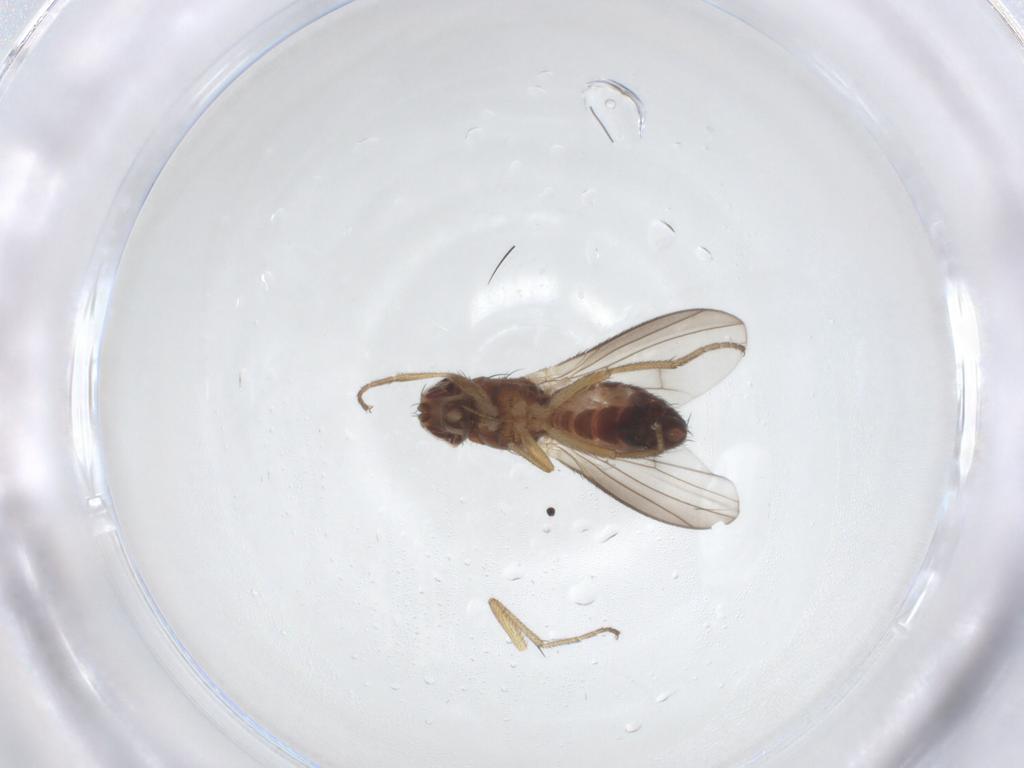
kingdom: Animalia
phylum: Arthropoda
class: Insecta
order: Diptera
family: Heleomyzidae
